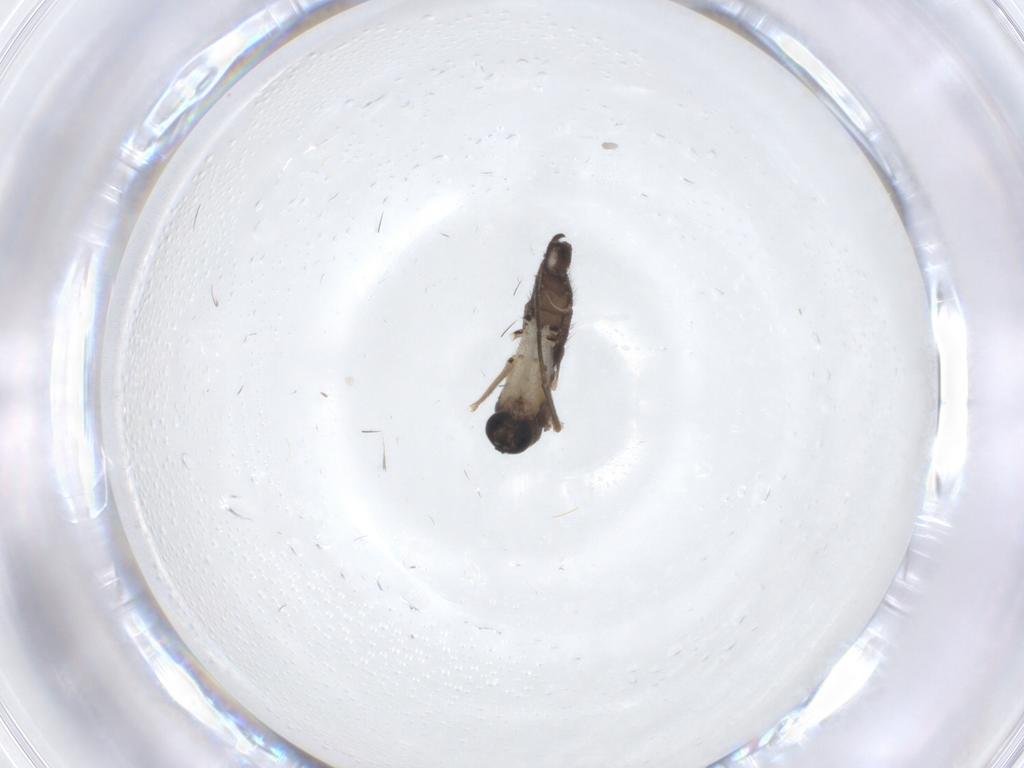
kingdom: Animalia
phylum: Arthropoda
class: Insecta
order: Diptera
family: Sciaridae
